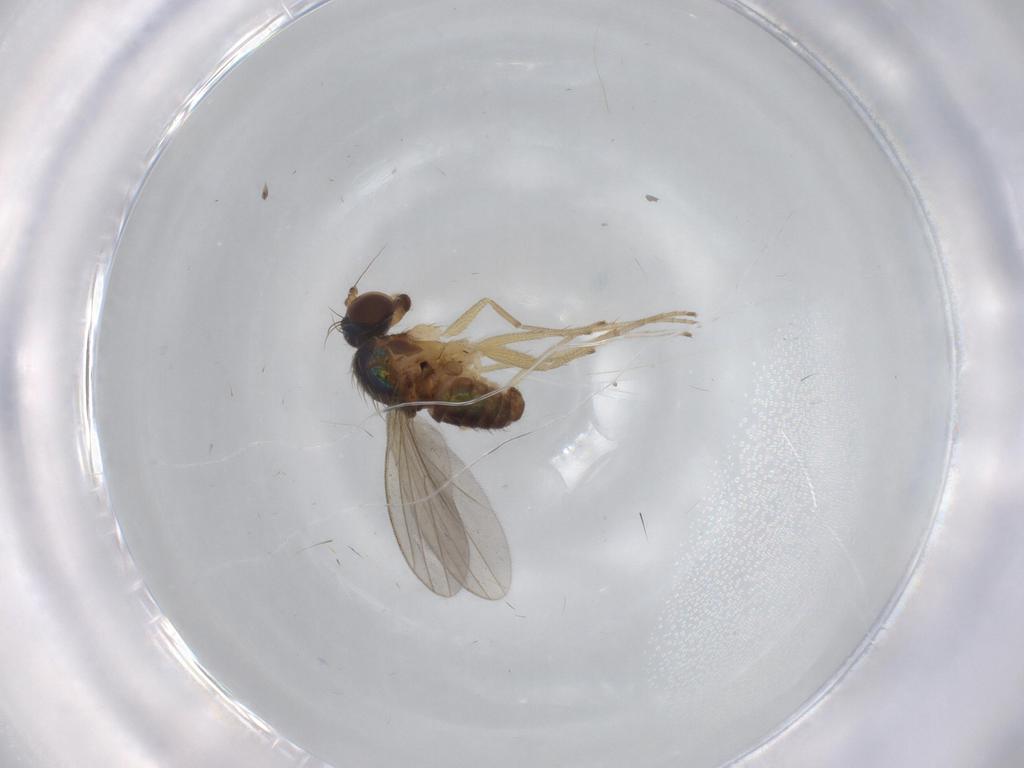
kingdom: Animalia
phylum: Arthropoda
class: Insecta
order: Diptera
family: Dolichopodidae
